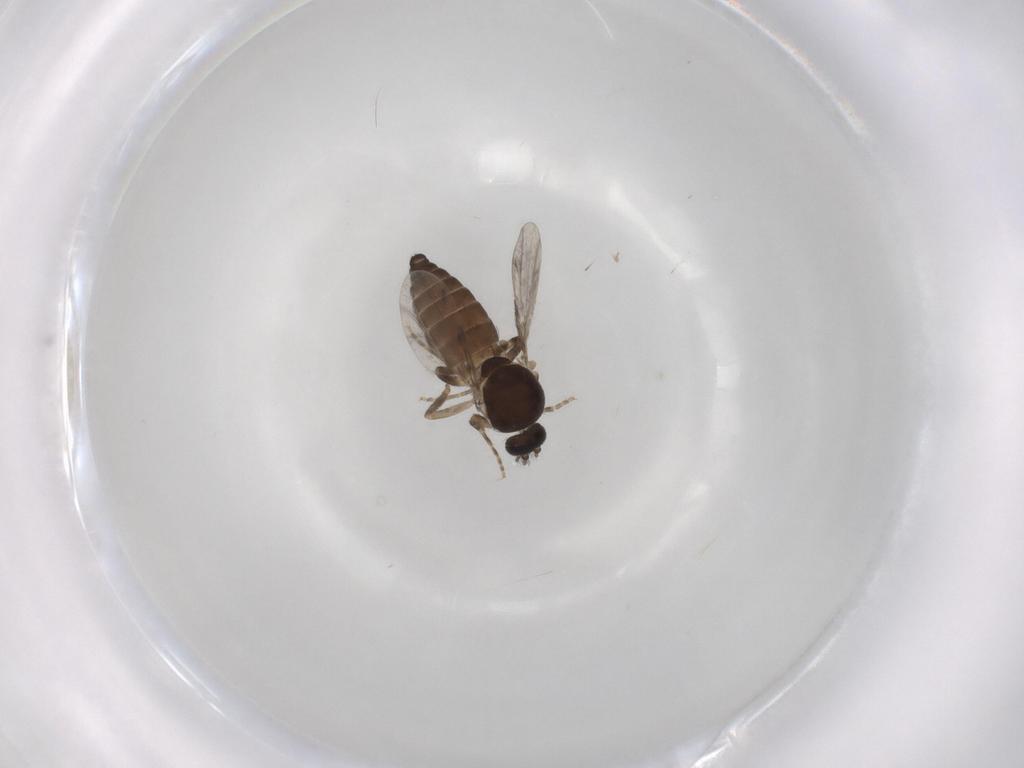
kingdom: Animalia
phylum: Arthropoda
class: Insecta
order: Diptera
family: Ceratopogonidae
